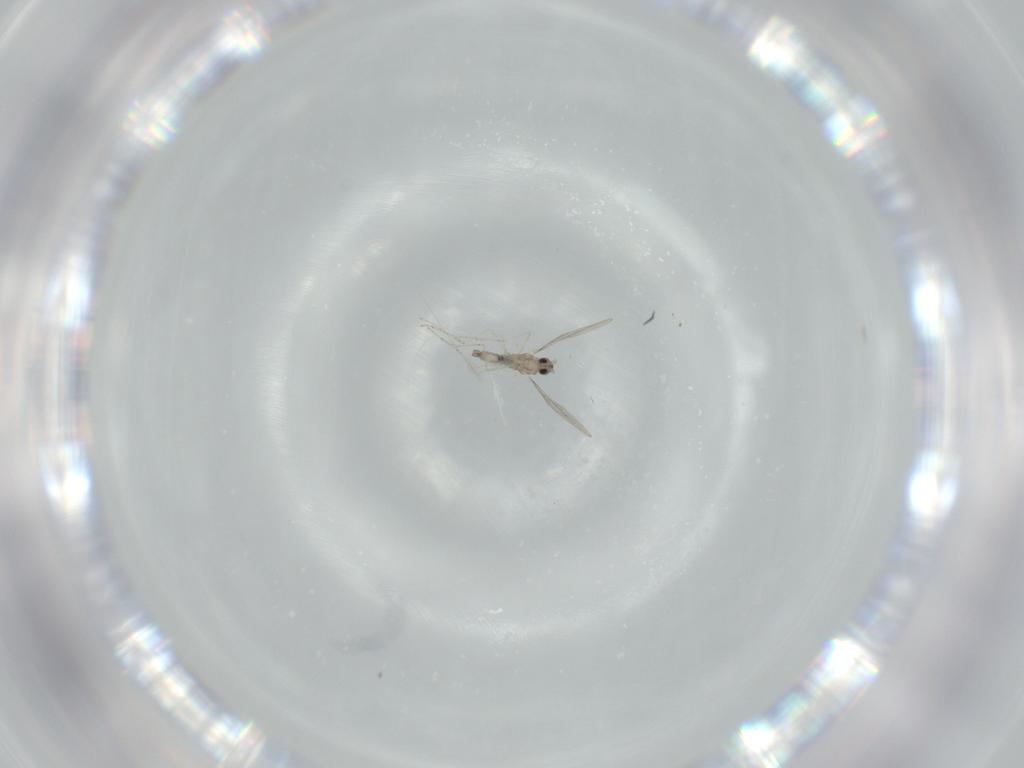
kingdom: Animalia
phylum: Arthropoda
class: Insecta
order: Diptera
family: Cecidomyiidae
